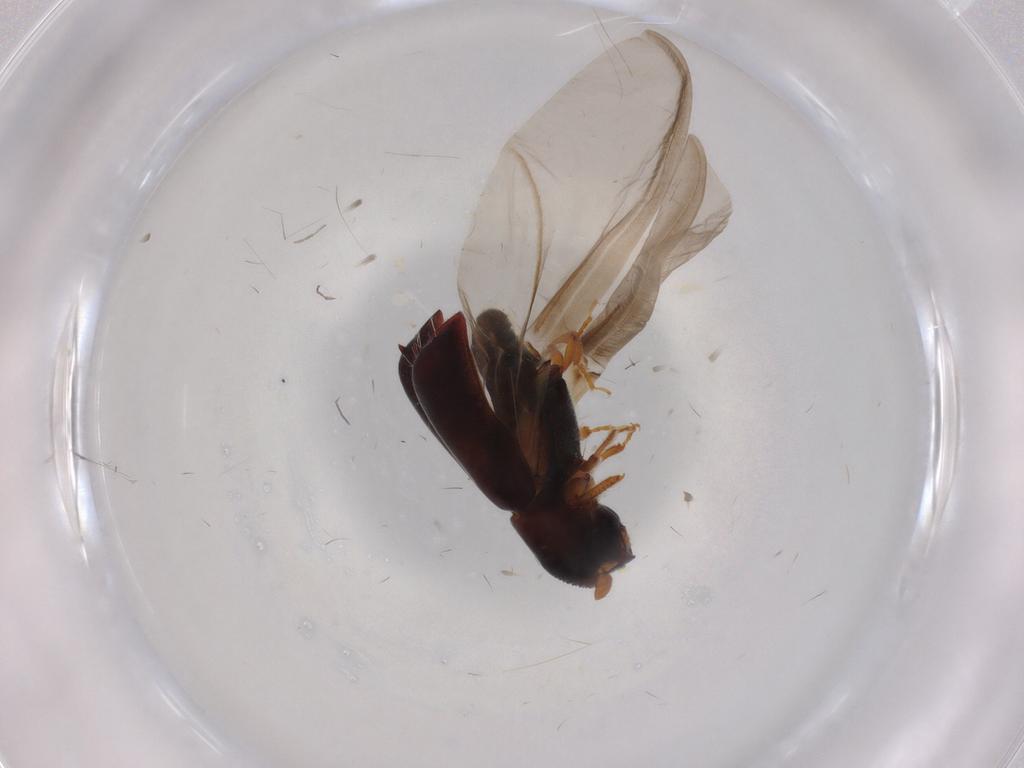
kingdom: Animalia
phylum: Arthropoda
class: Insecta
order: Coleoptera
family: Curculionidae
